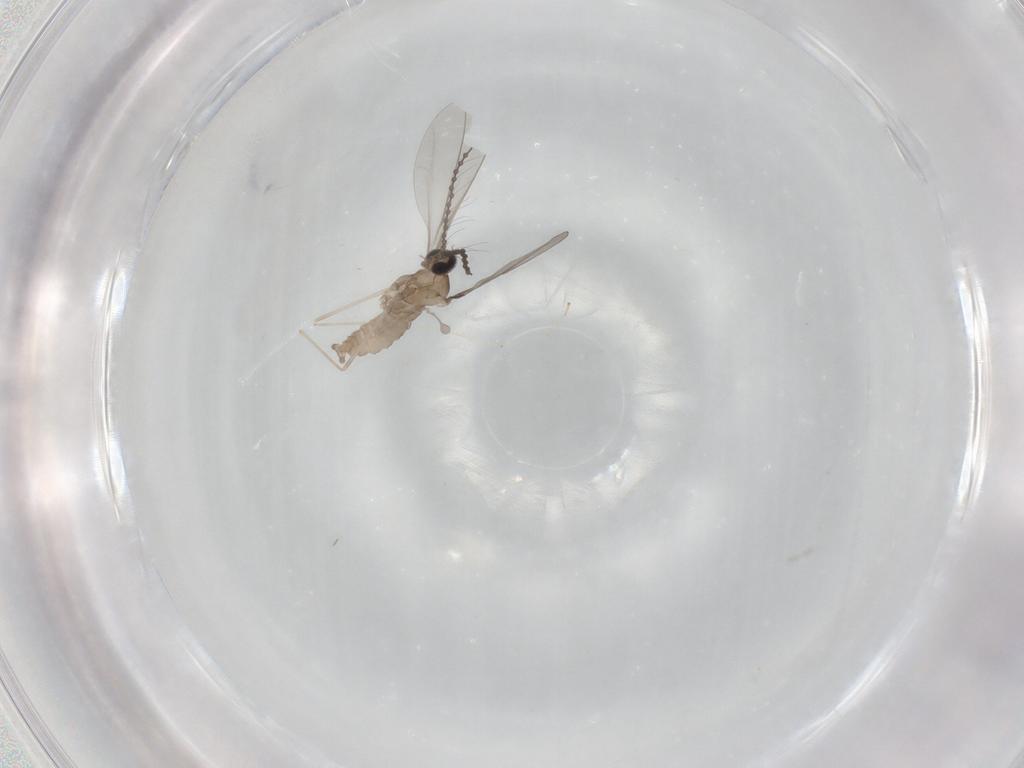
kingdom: Animalia
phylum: Arthropoda
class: Insecta
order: Diptera
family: Cecidomyiidae
